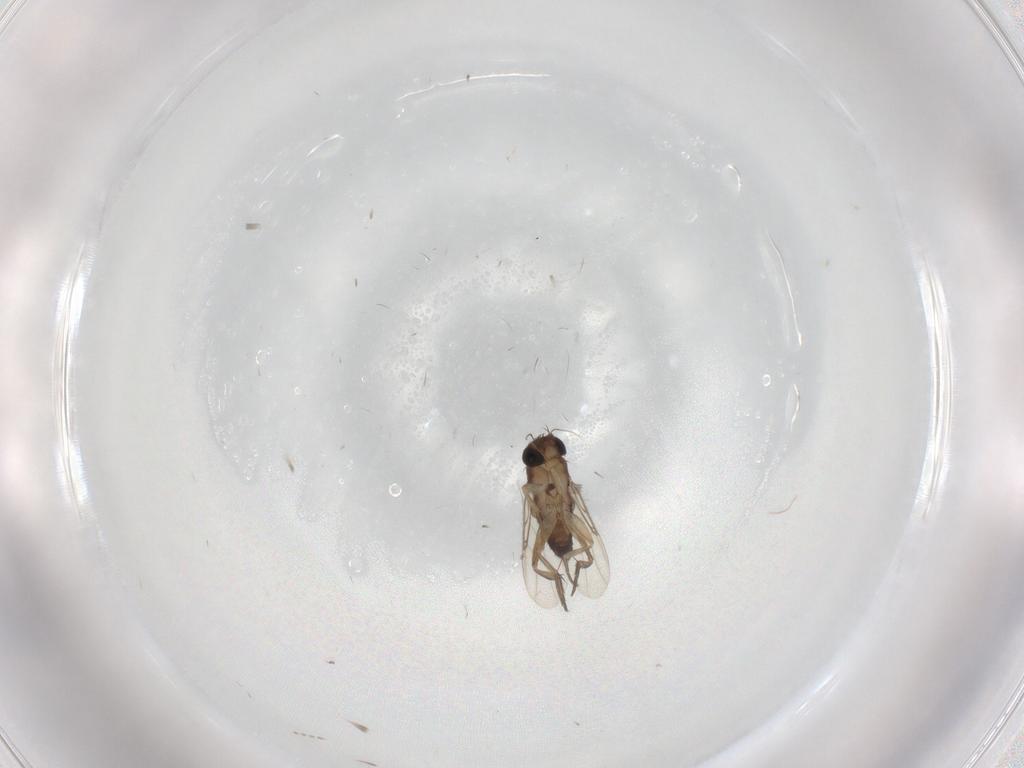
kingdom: Animalia
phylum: Arthropoda
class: Insecta
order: Diptera
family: Phoridae
